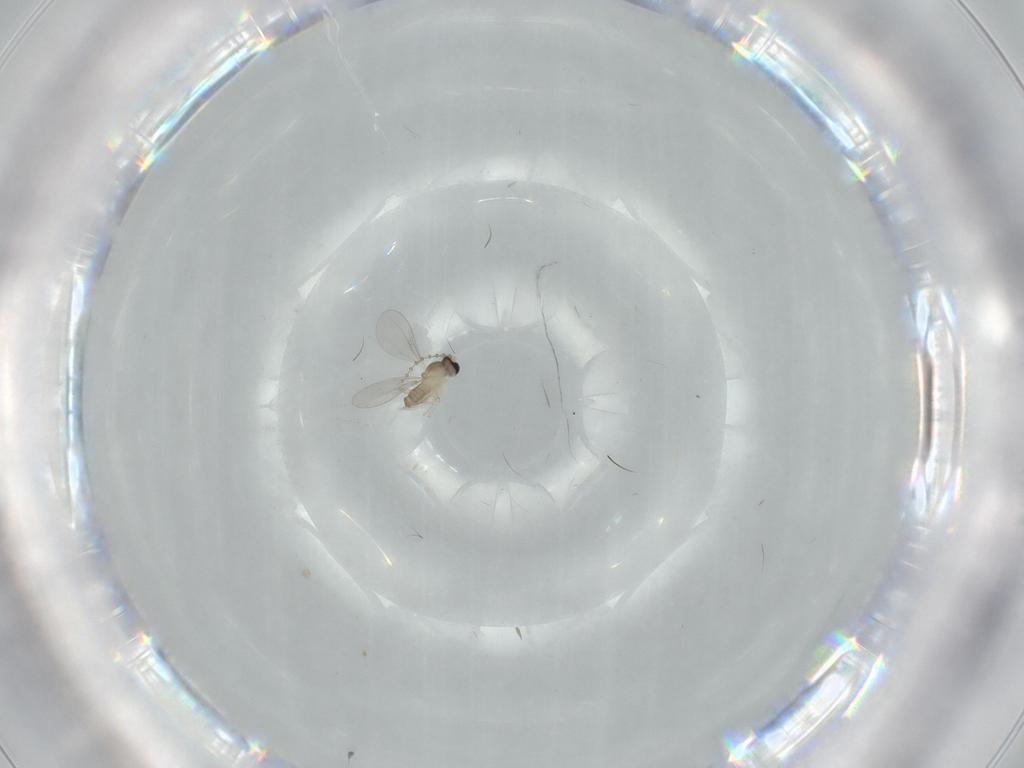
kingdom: Animalia
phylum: Arthropoda
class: Insecta
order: Diptera
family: Cecidomyiidae
